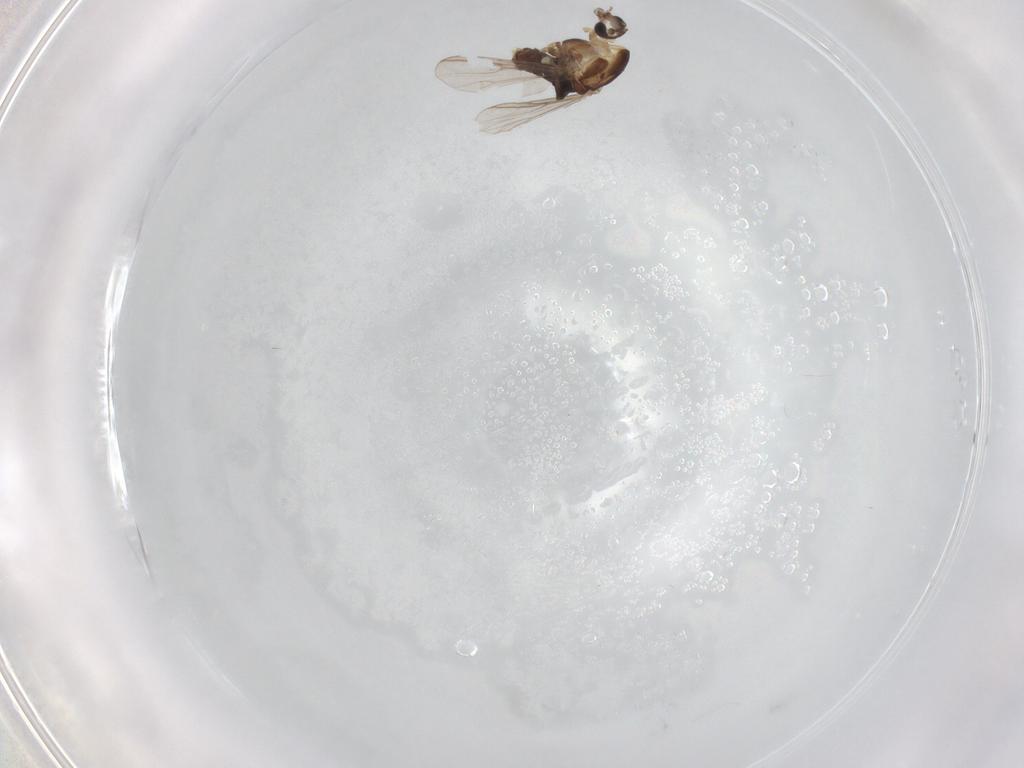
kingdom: Animalia
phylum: Arthropoda
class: Insecta
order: Diptera
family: Chironomidae
